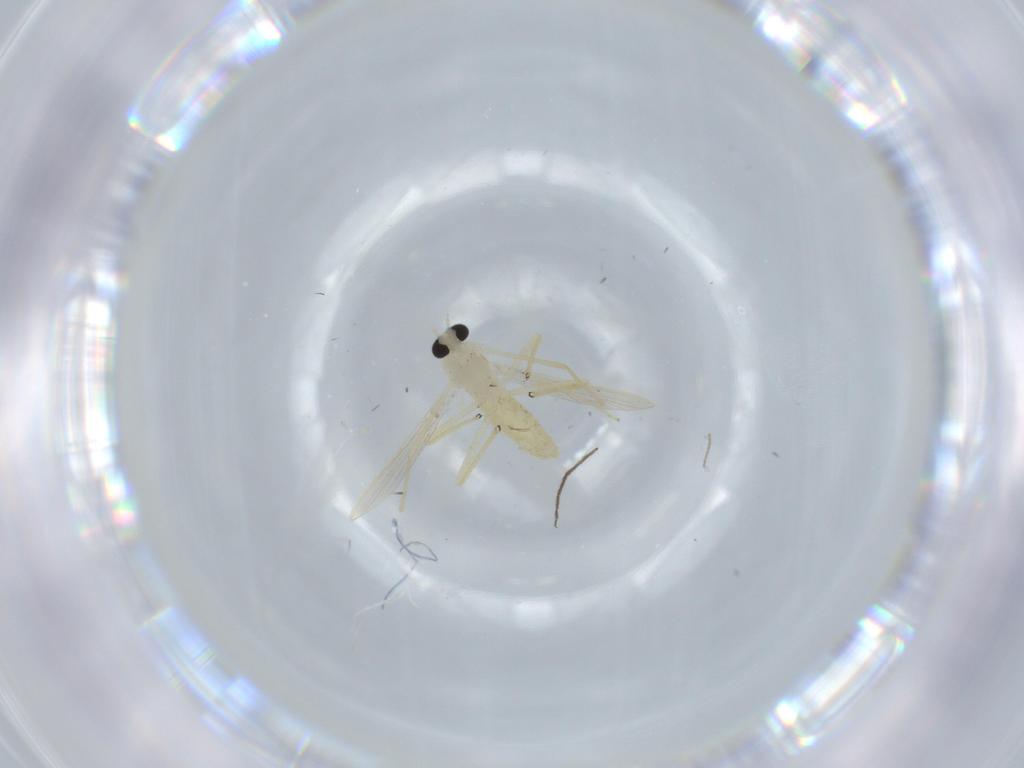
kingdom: Animalia
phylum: Arthropoda
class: Insecta
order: Diptera
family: Chironomidae
